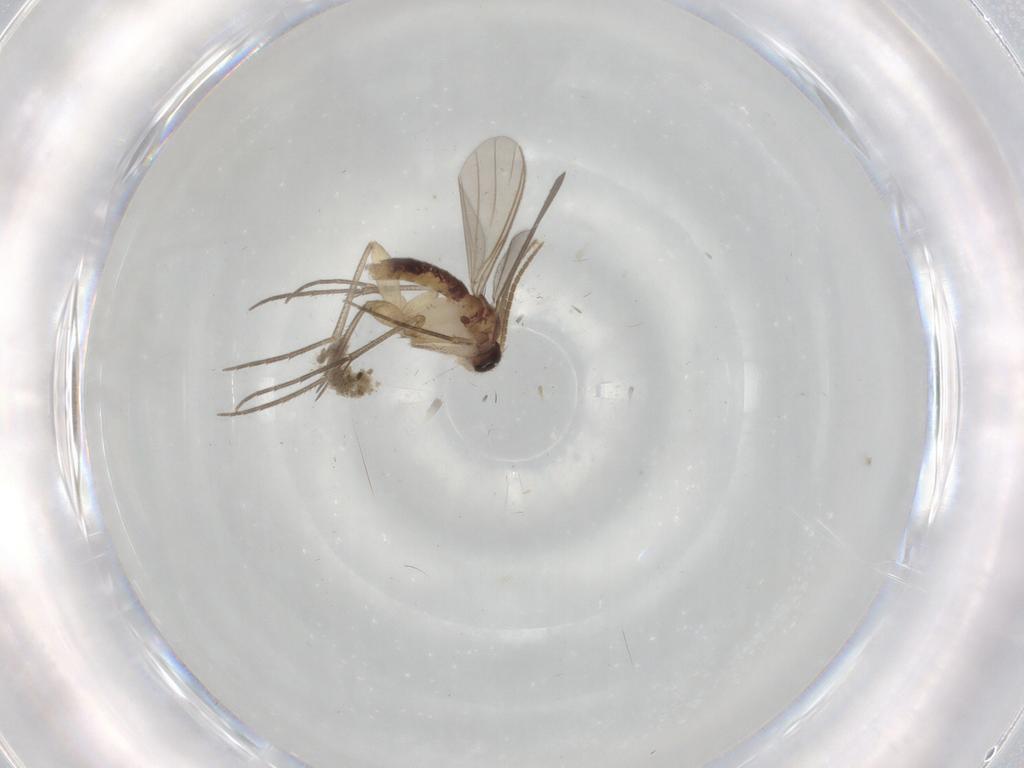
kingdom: Animalia
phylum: Arthropoda
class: Insecta
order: Diptera
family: Mycetophilidae
